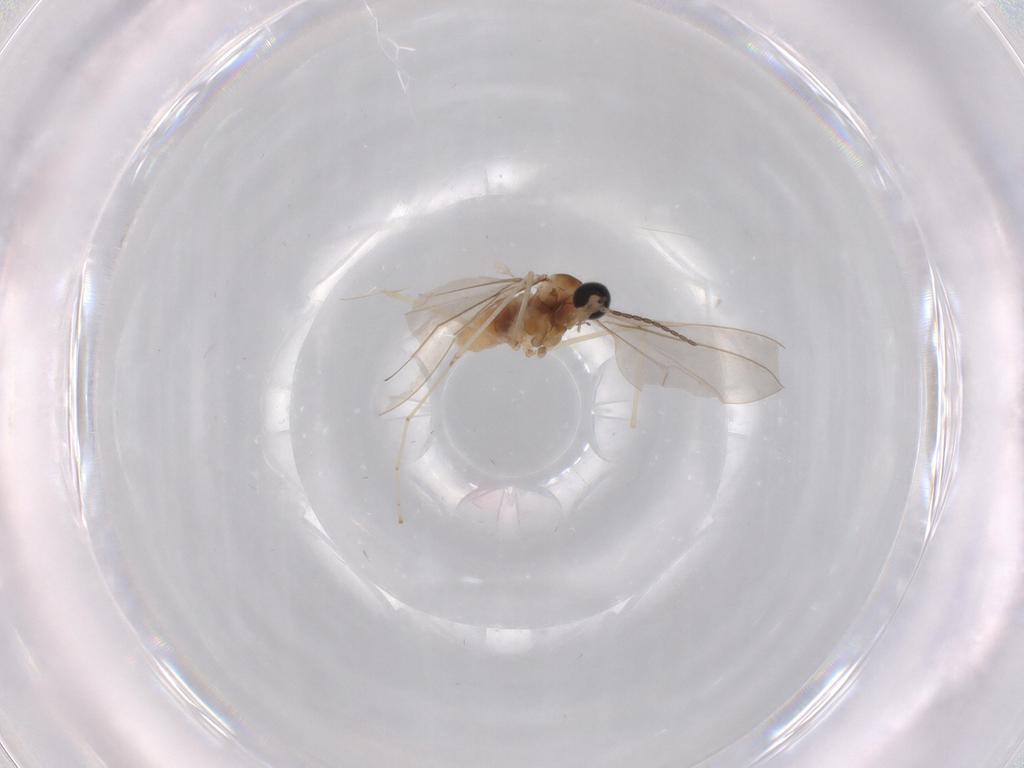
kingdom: Animalia
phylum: Arthropoda
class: Insecta
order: Diptera
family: Cecidomyiidae
